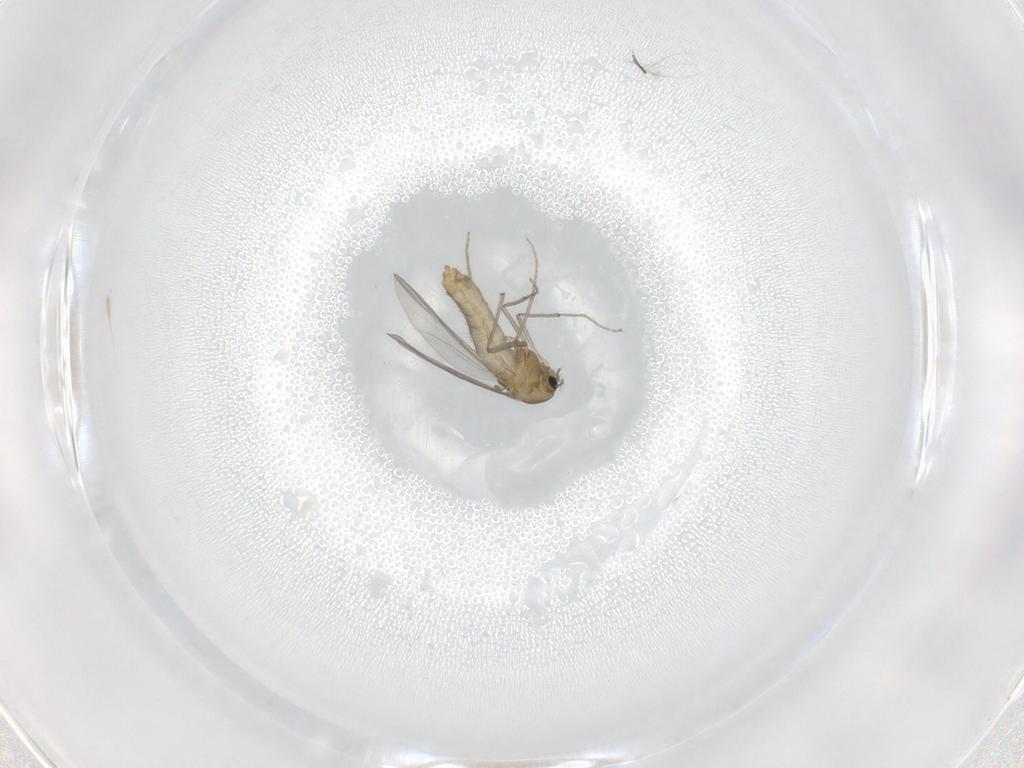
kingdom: Animalia
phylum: Arthropoda
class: Insecta
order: Diptera
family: Chironomidae
